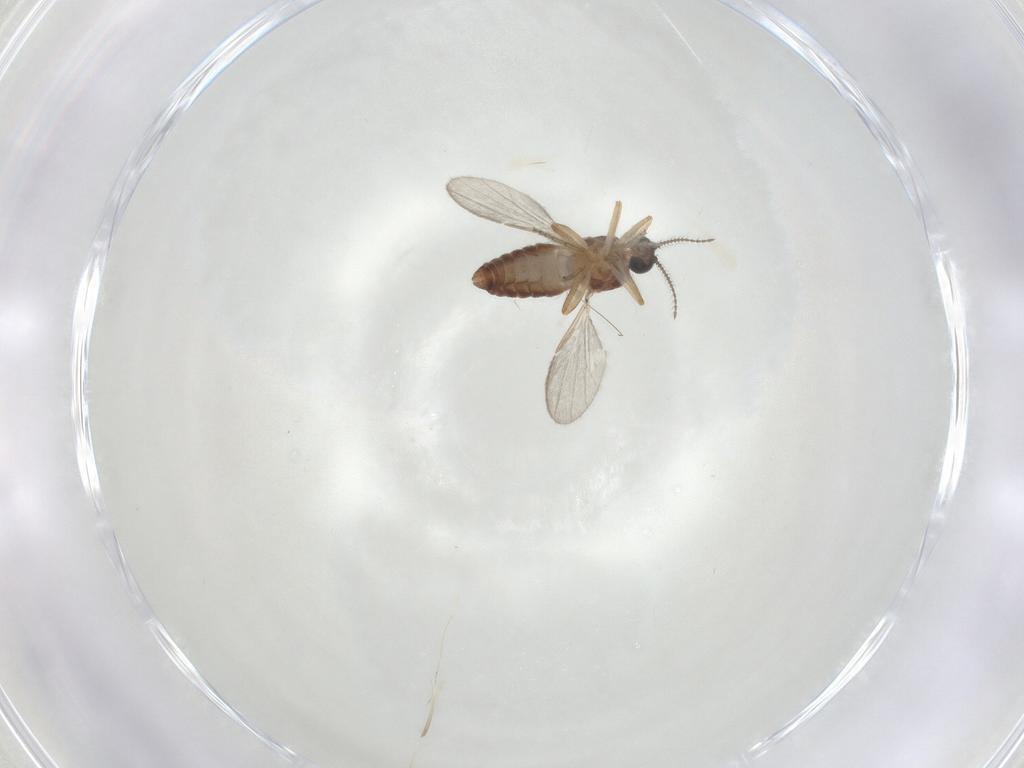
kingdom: Animalia
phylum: Arthropoda
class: Insecta
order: Diptera
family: Ceratopogonidae
